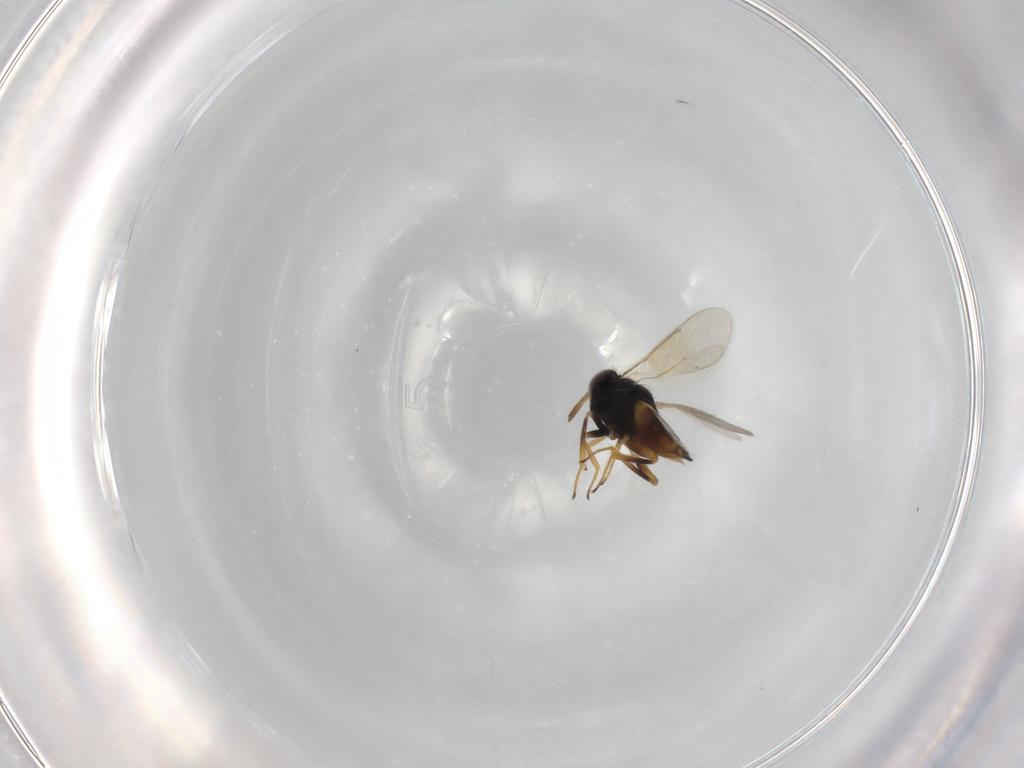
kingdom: Animalia
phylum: Arthropoda
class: Insecta
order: Hymenoptera
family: Aphelinidae
